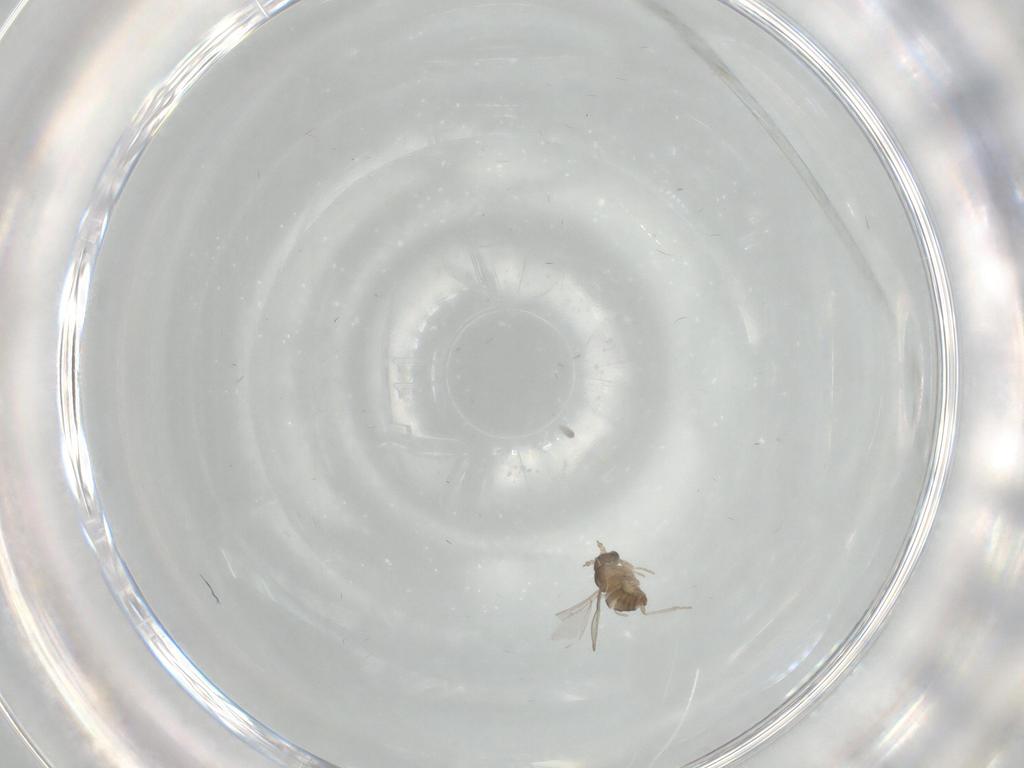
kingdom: Animalia
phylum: Arthropoda
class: Insecta
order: Diptera
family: Cecidomyiidae
